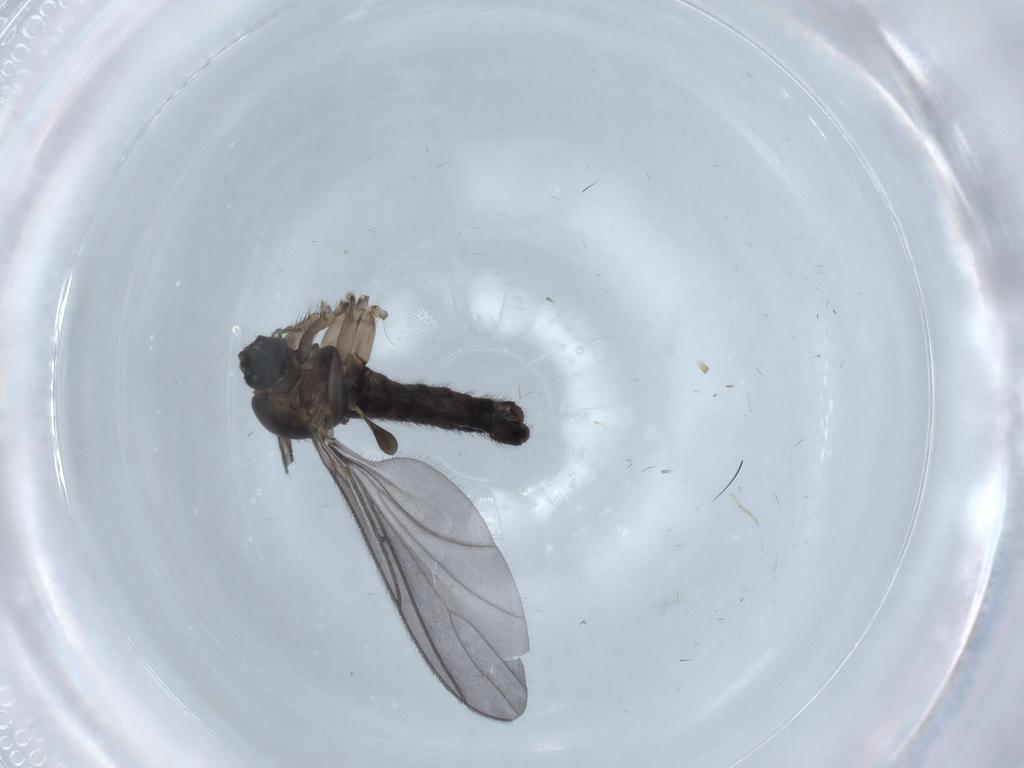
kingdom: Animalia
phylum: Arthropoda
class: Insecta
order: Diptera
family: Sciaridae
